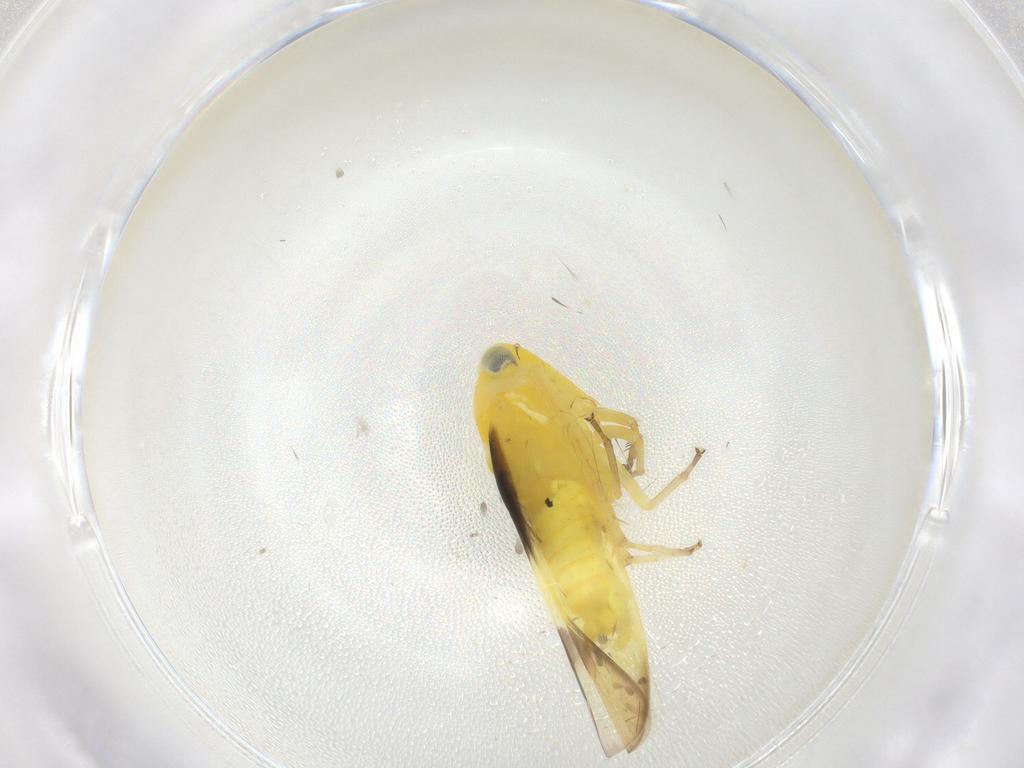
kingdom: Animalia
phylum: Arthropoda
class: Insecta
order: Hemiptera
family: Cicadellidae
